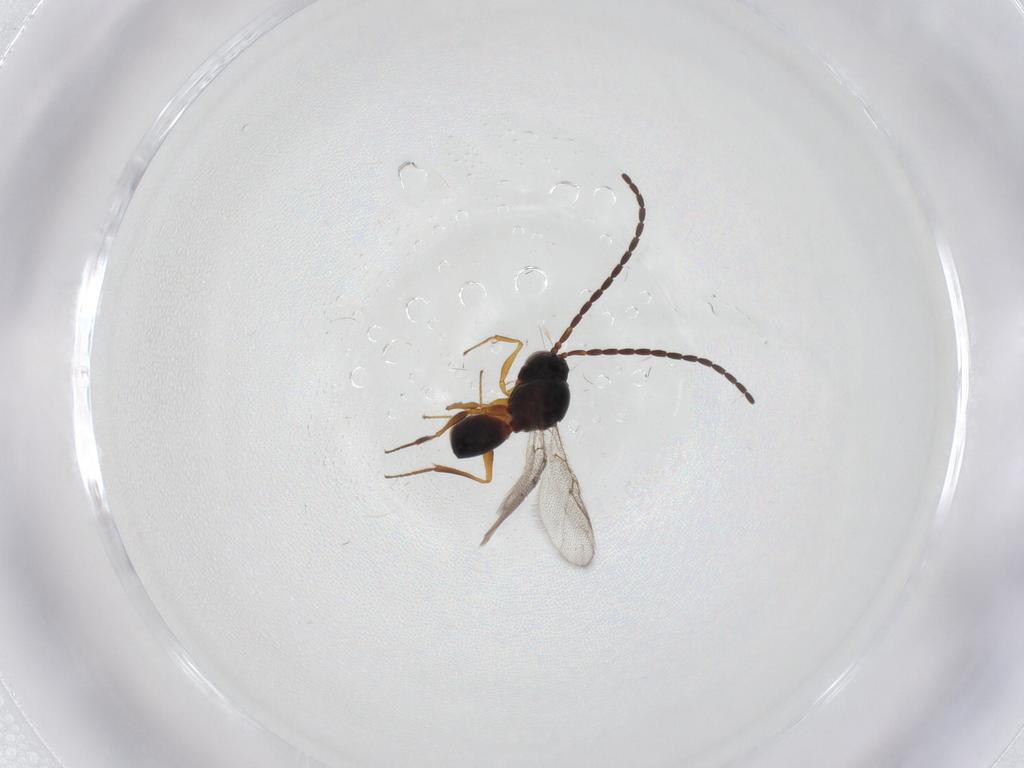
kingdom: Animalia
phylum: Arthropoda
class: Insecta
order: Hymenoptera
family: Figitidae
